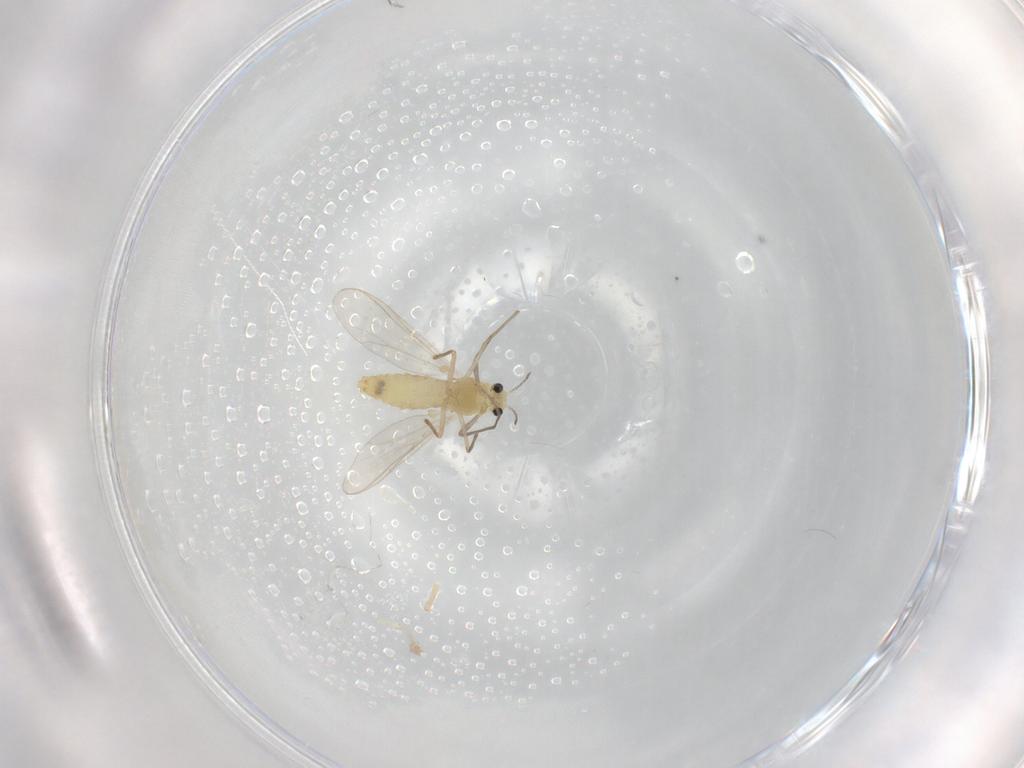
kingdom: Animalia
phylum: Arthropoda
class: Insecta
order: Diptera
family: Cecidomyiidae
